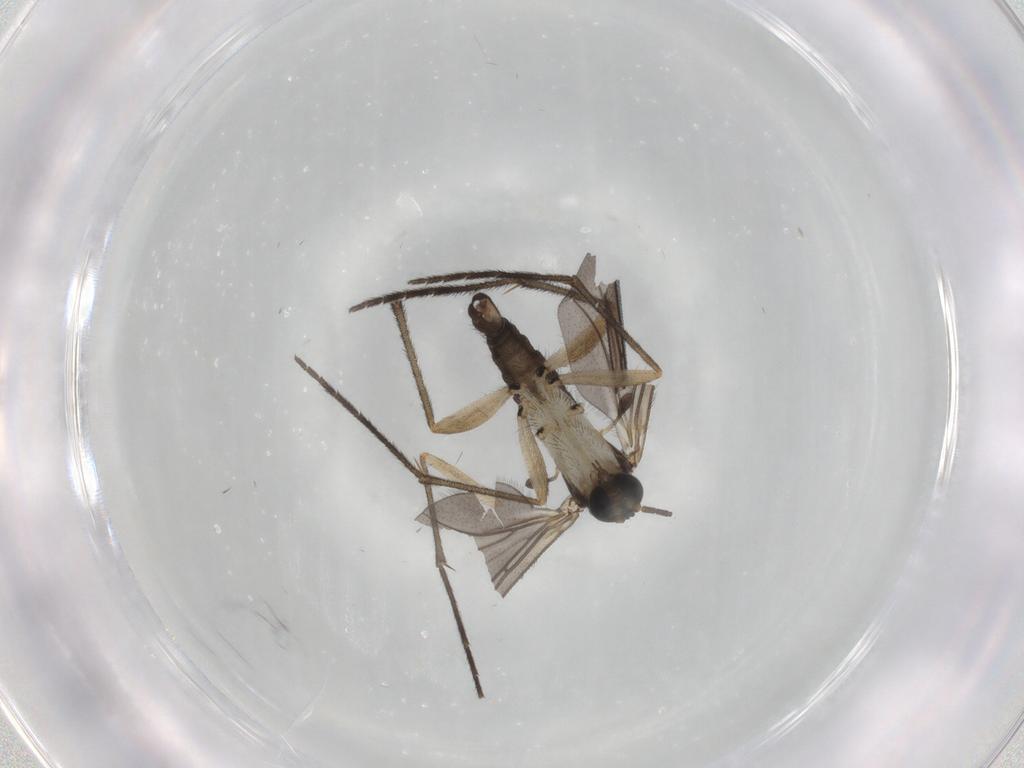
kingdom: Animalia
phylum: Arthropoda
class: Insecta
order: Diptera
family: Sciaridae
